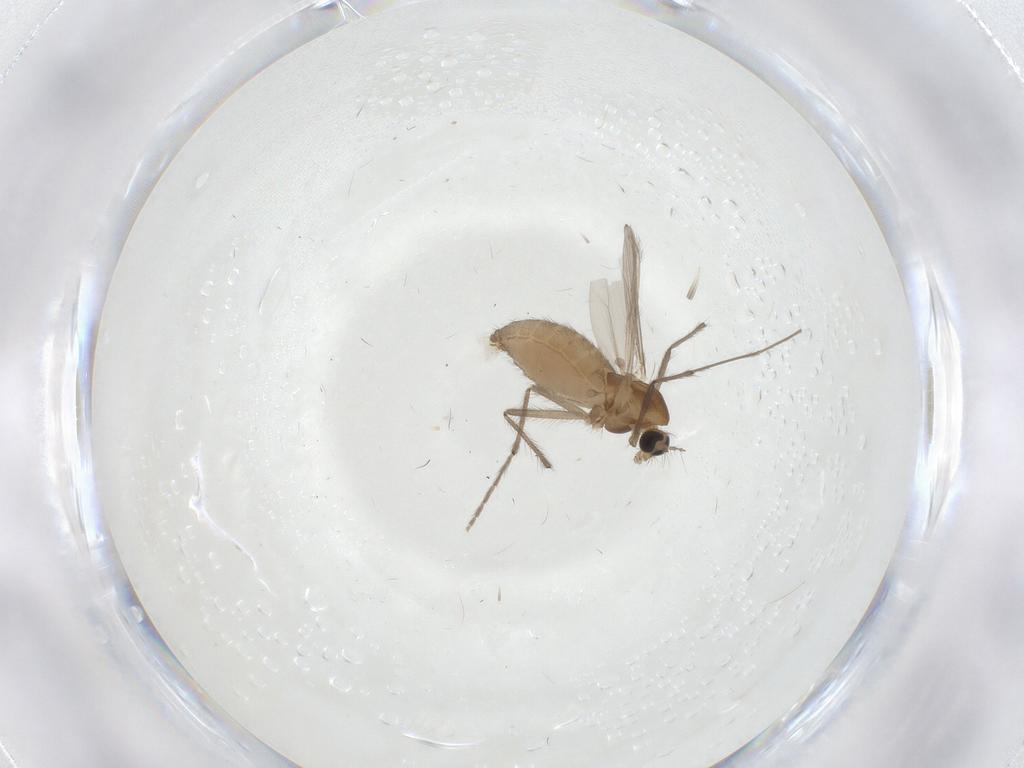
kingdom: Animalia
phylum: Arthropoda
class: Insecta
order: Diptera
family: Chironomidae
